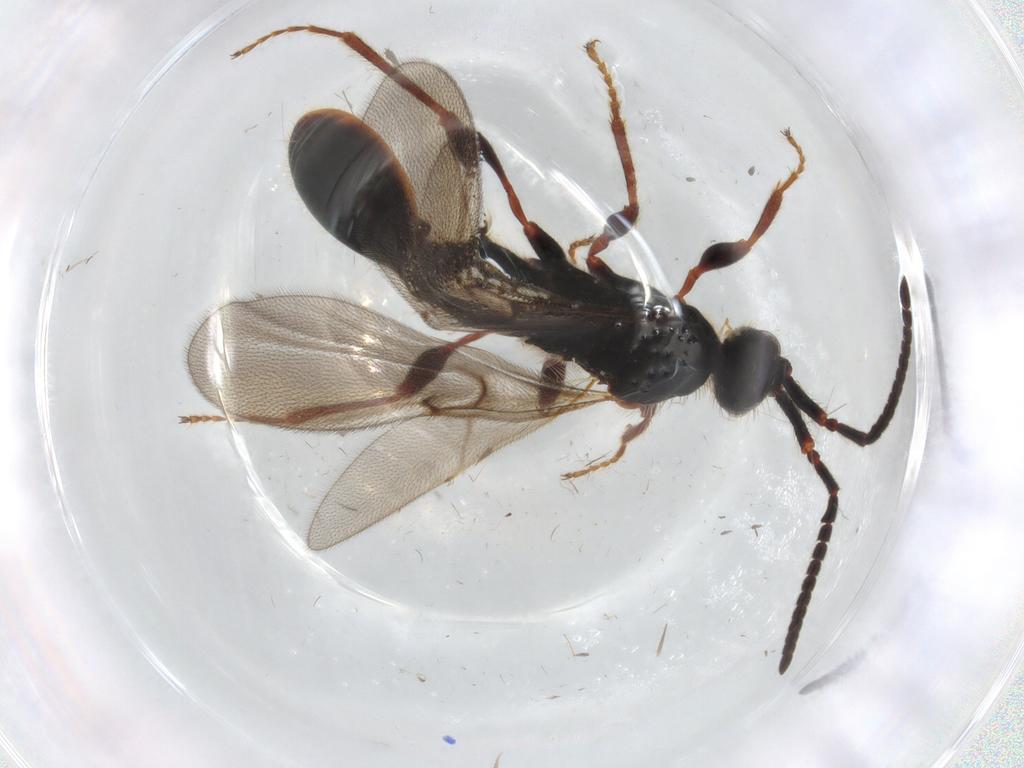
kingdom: Animalia
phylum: Arthropoda
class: Insecta
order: Hymenoptera
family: Diapriidae
